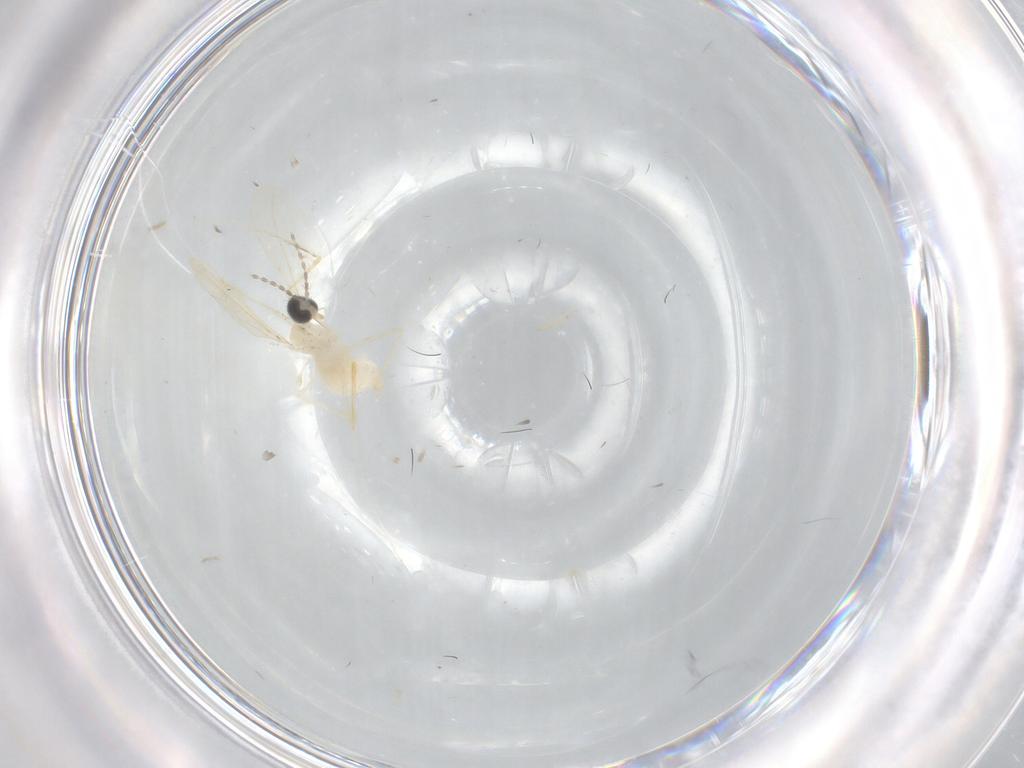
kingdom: Animalia
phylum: Arthropoda
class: Insecta
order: Diptera
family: Cecidomyiidae
